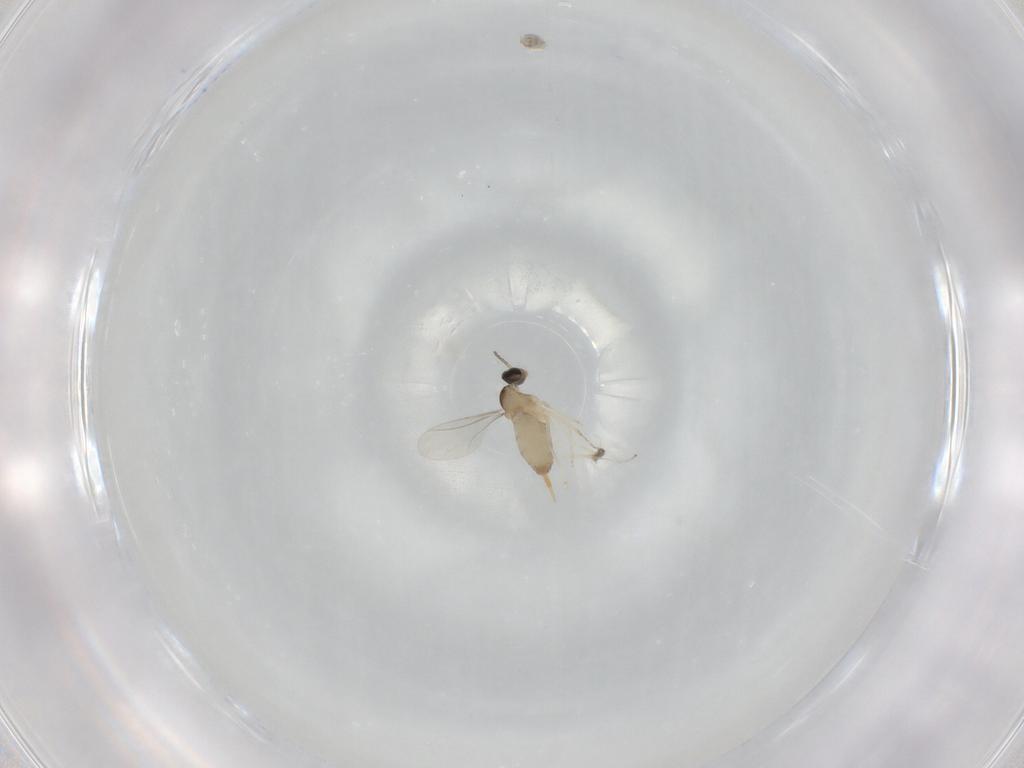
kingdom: Animalia
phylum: Arthropoda
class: Insecta
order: Diptera
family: Cecidomyiidae
